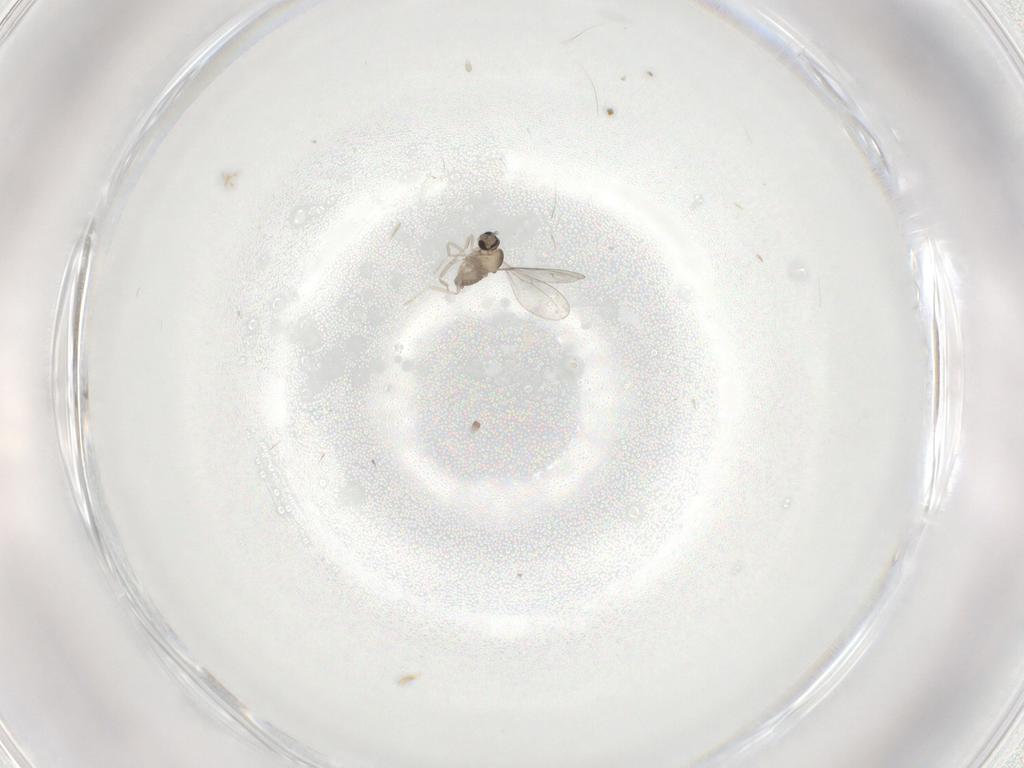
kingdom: Animalia
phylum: Arthropoda
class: Insecta
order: Diptera
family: Cecidomyiidae
